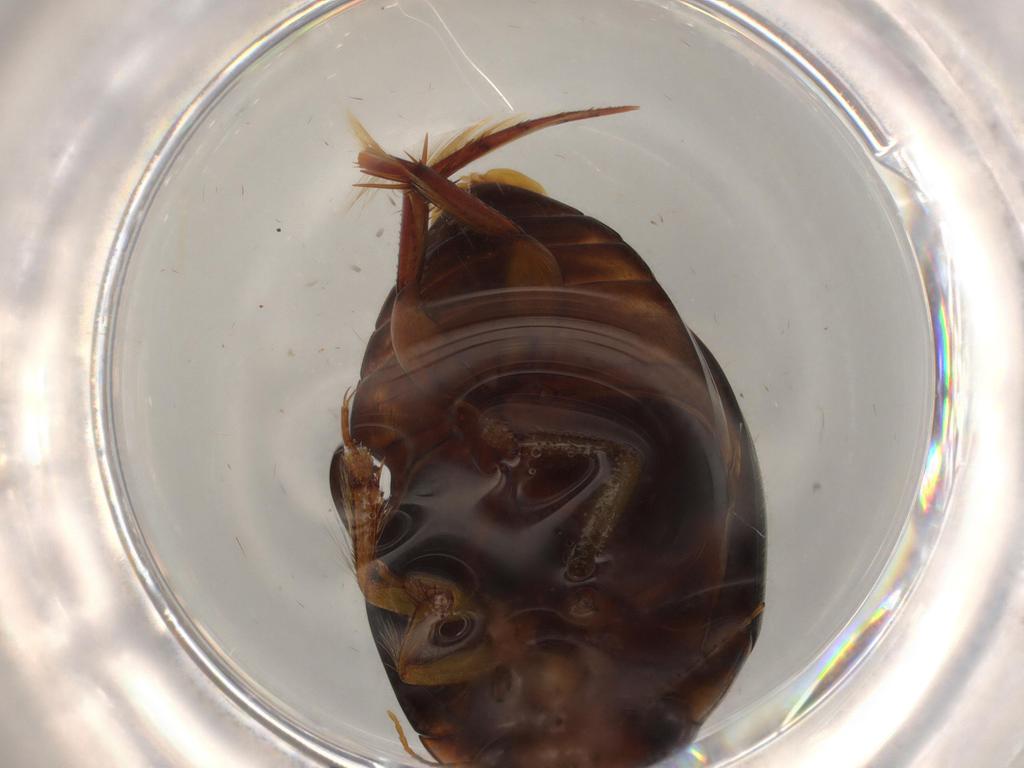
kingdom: Animalia
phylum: Arthropoda
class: Insecta
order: Coleoptera
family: Dytiscidae
